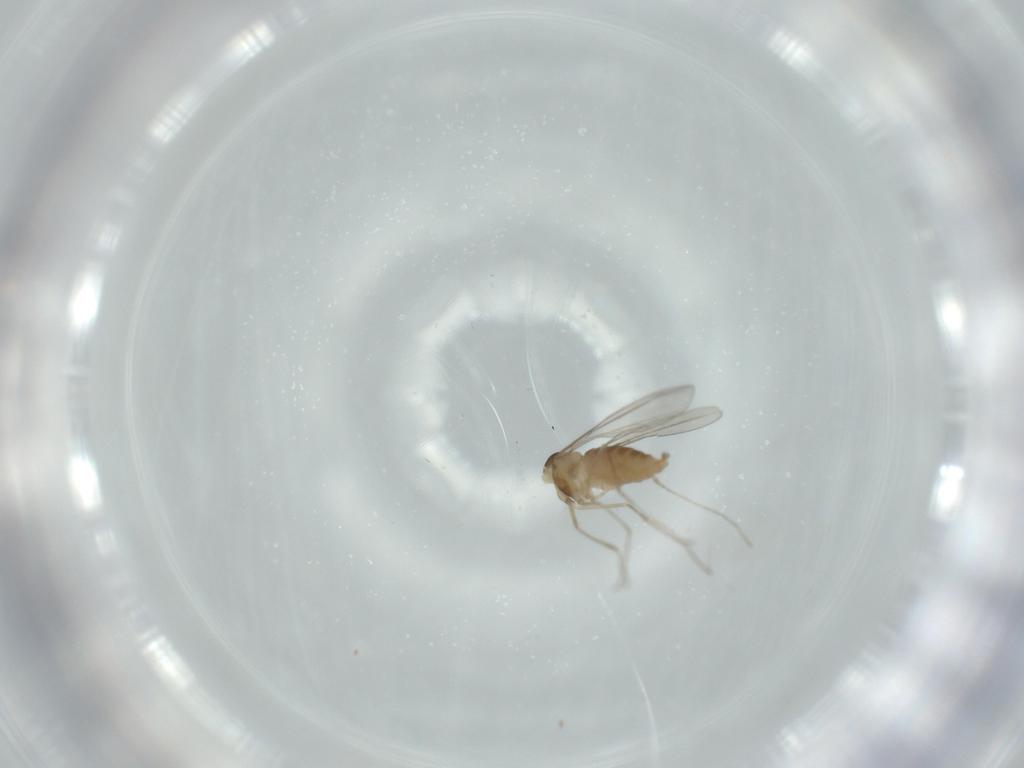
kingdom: Animalia
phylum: Arthropoda
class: Insecta
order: Diptera
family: Cecidomyiidae
